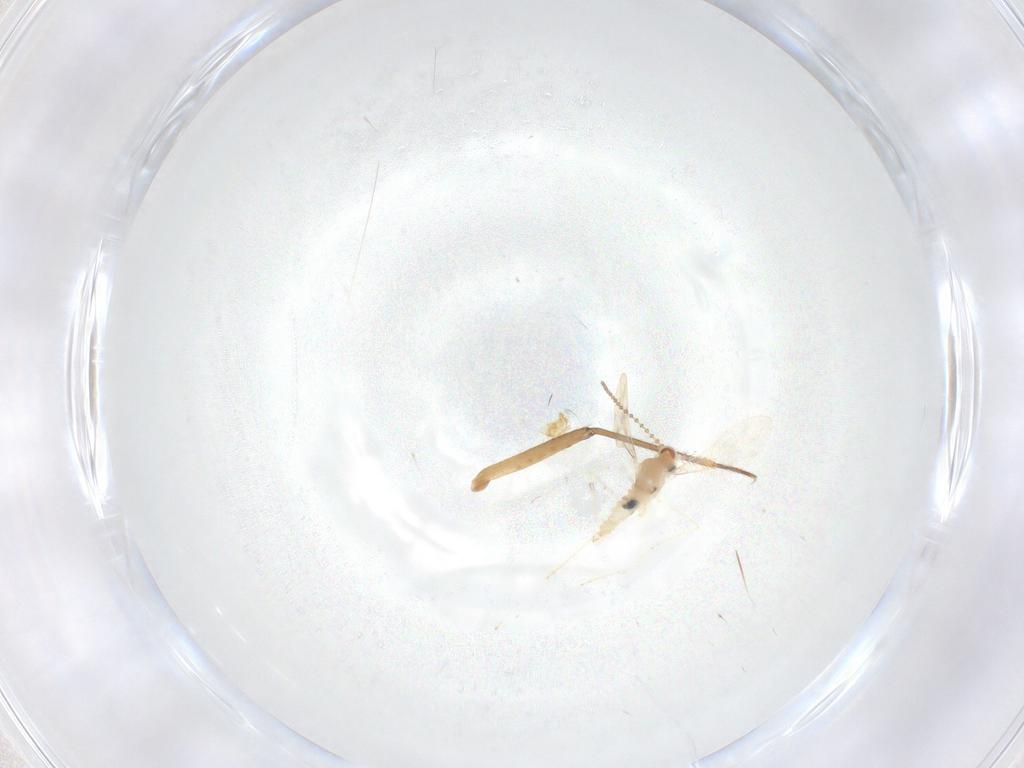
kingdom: Animalia
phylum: Arthropoda
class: Insecta
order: Diptera
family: Cecidomyiidae
